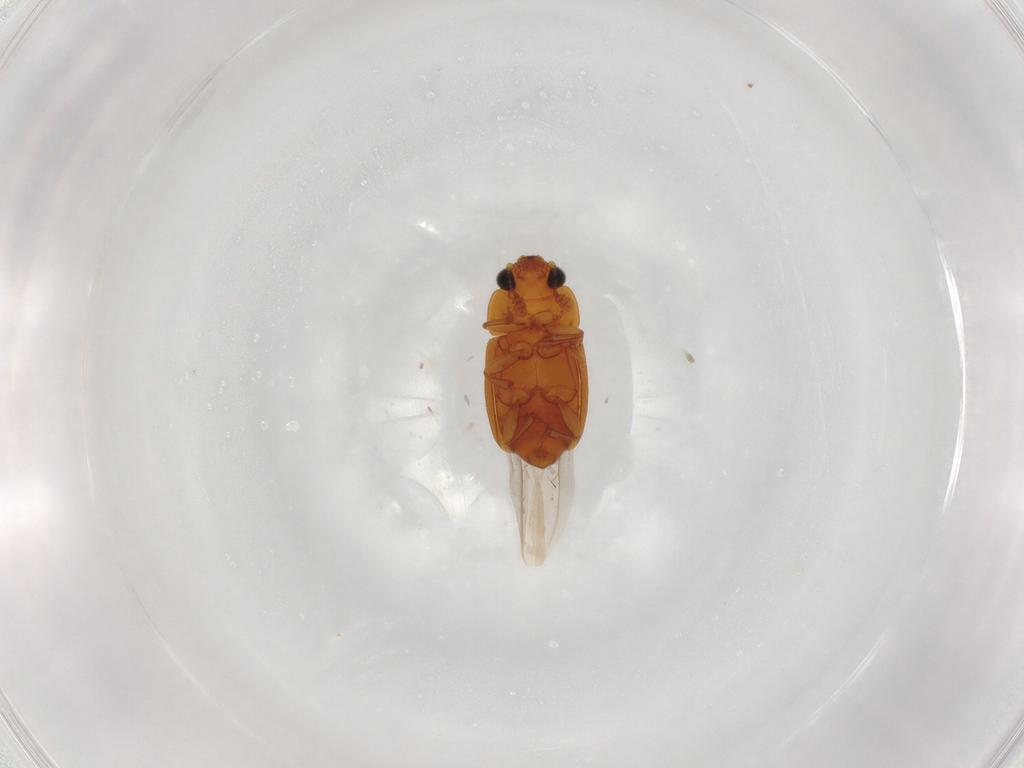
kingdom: Animalia
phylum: Arthropoda
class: Insecta
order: Coleoptera
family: Nitidulidae
